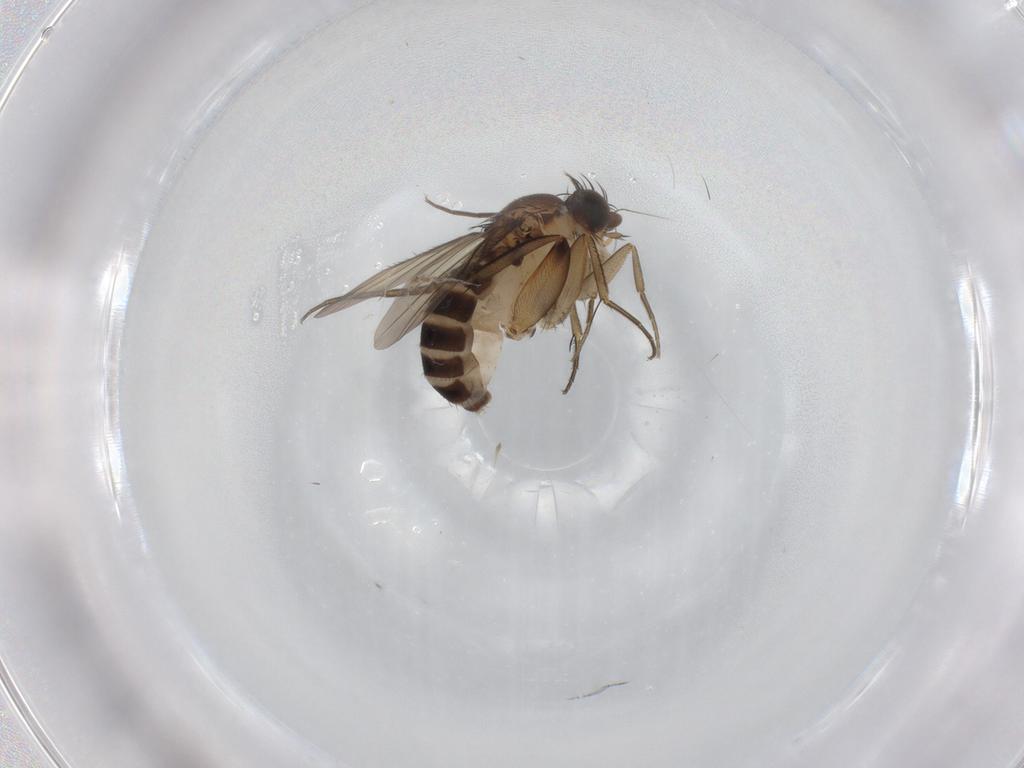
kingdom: Animalia
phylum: Arthropoda
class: Insecta
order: Diptera
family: Phoridae
